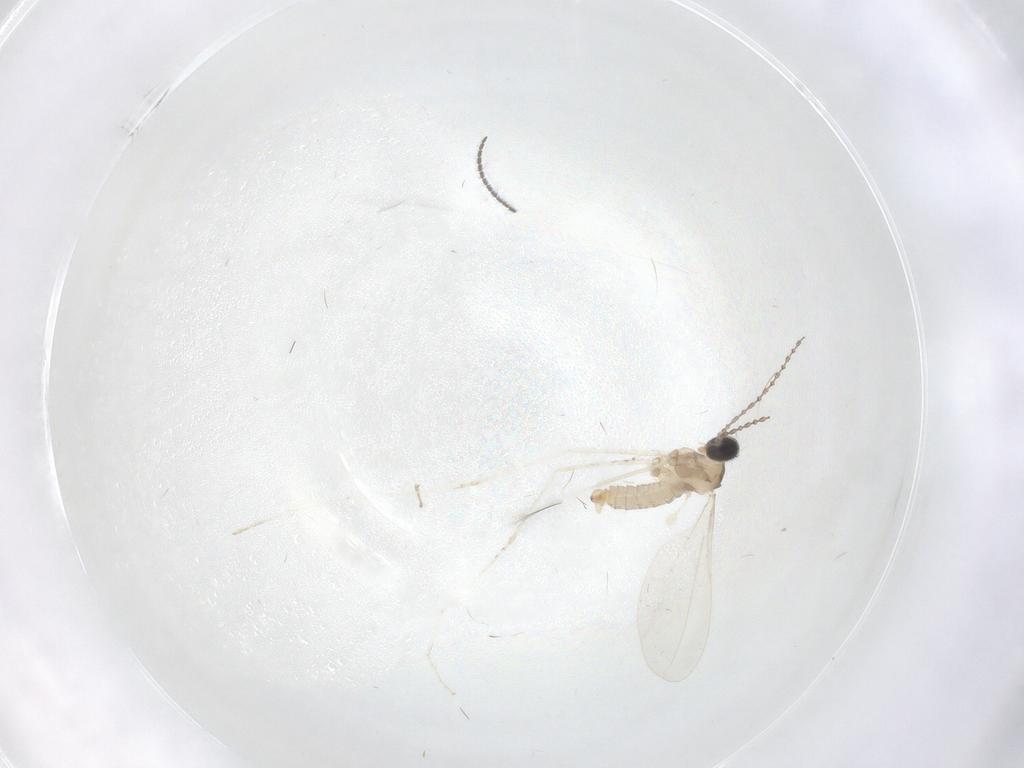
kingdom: Animalia
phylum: Arthropoda
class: Insecta
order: Diptera
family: Cecidomyiidae
